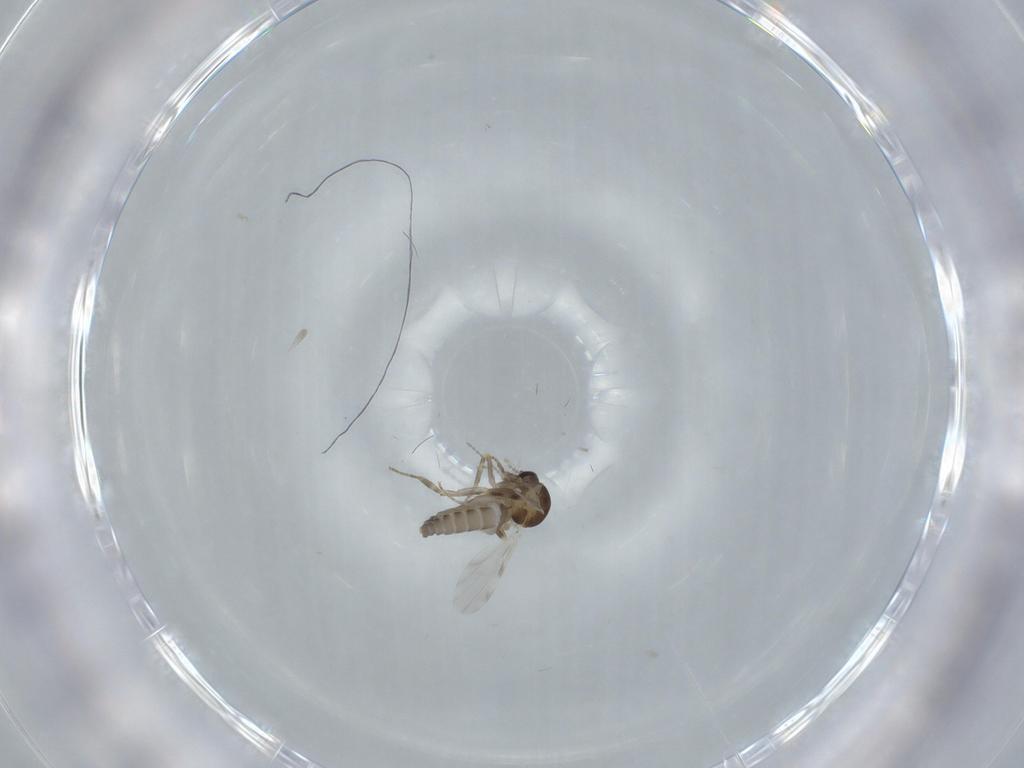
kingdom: Animalia
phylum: Arthropoda
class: Insecta
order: Diptera
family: Ceratopogonidae
